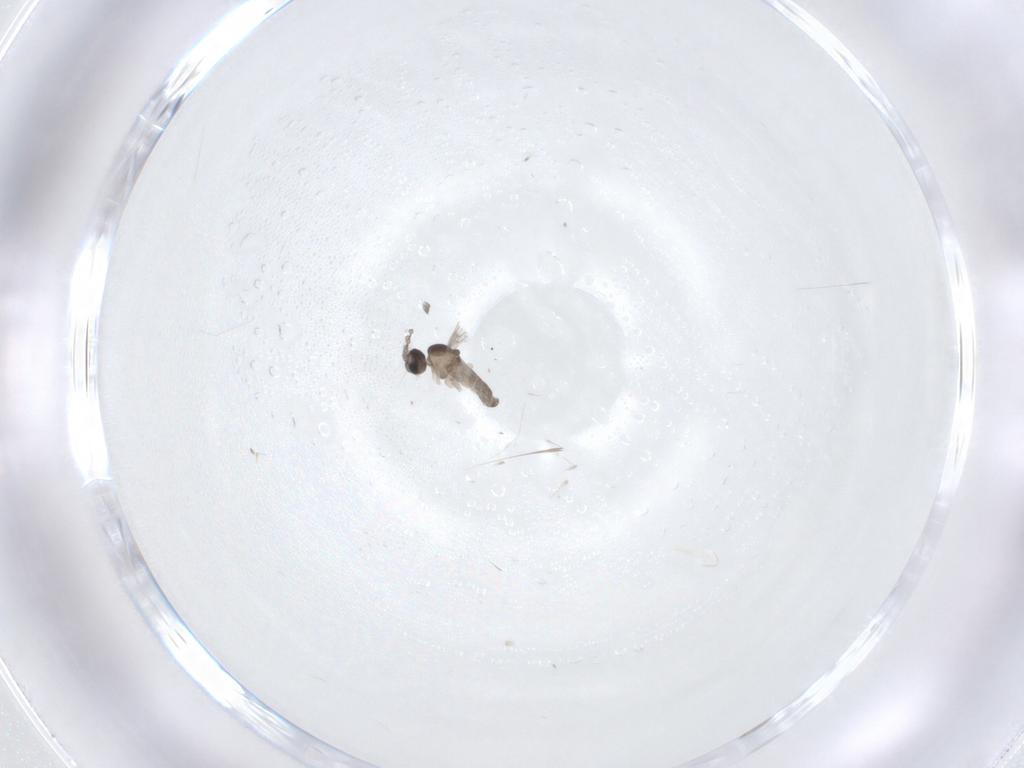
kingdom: Animalia
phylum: Arthropoda
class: Insecta
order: Diptera
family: Cecidomyiidae
